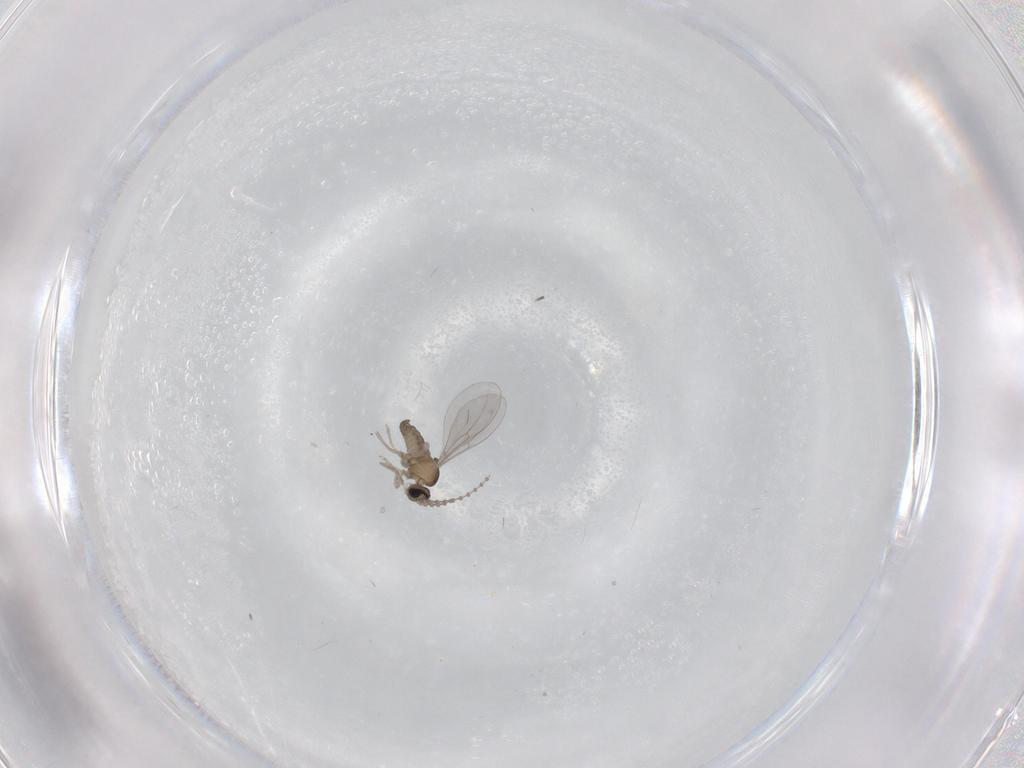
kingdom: Animalia
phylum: Arthropoda
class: Insecta
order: Diptera
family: Cecidomyiidae
